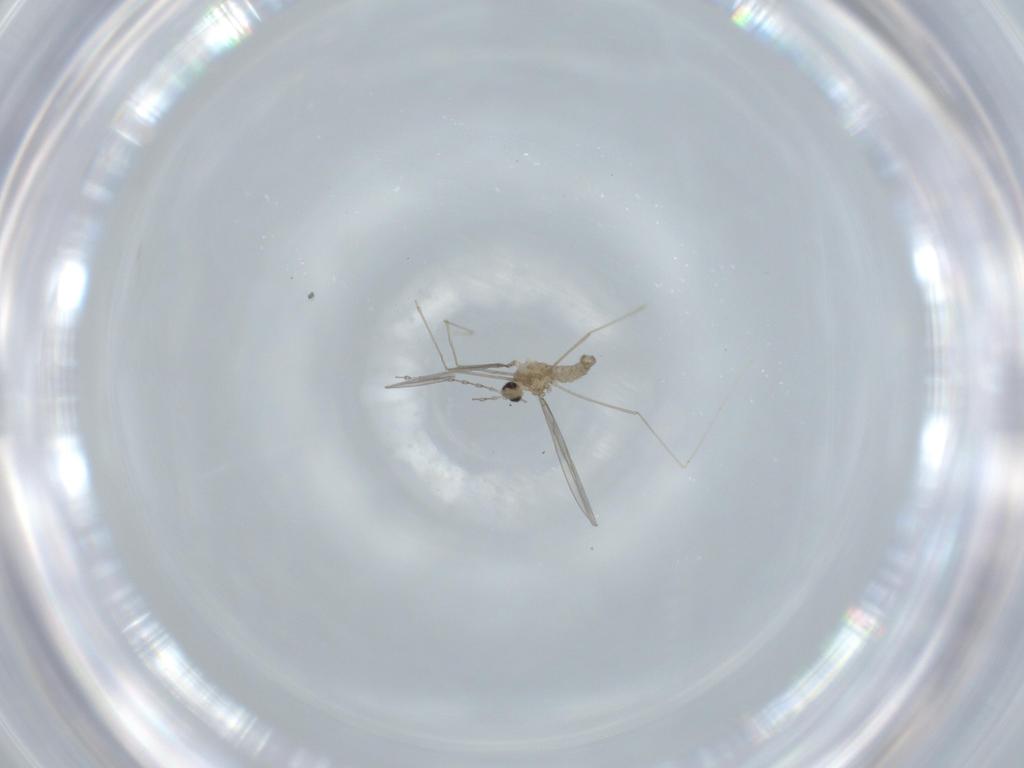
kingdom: Animalia
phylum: Arthropoda
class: Insecta
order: Diptera
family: Cecidomyiidae
